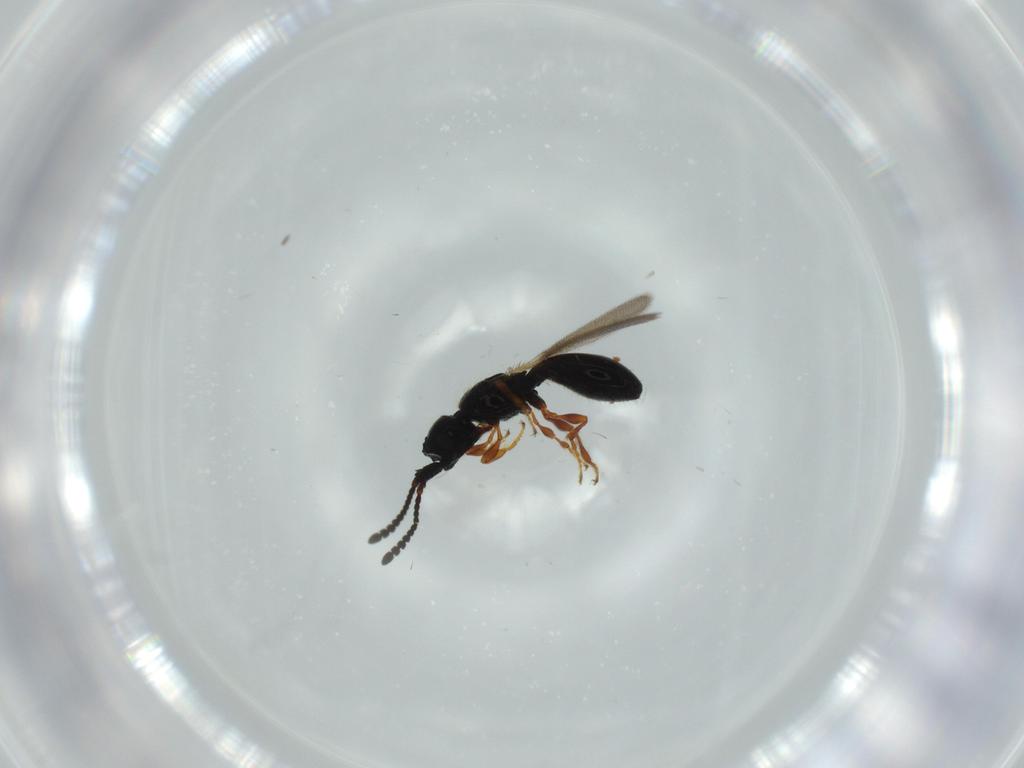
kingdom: Animalia
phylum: Arthropoda
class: Insecta
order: Hymenoptera
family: Diapriidae
